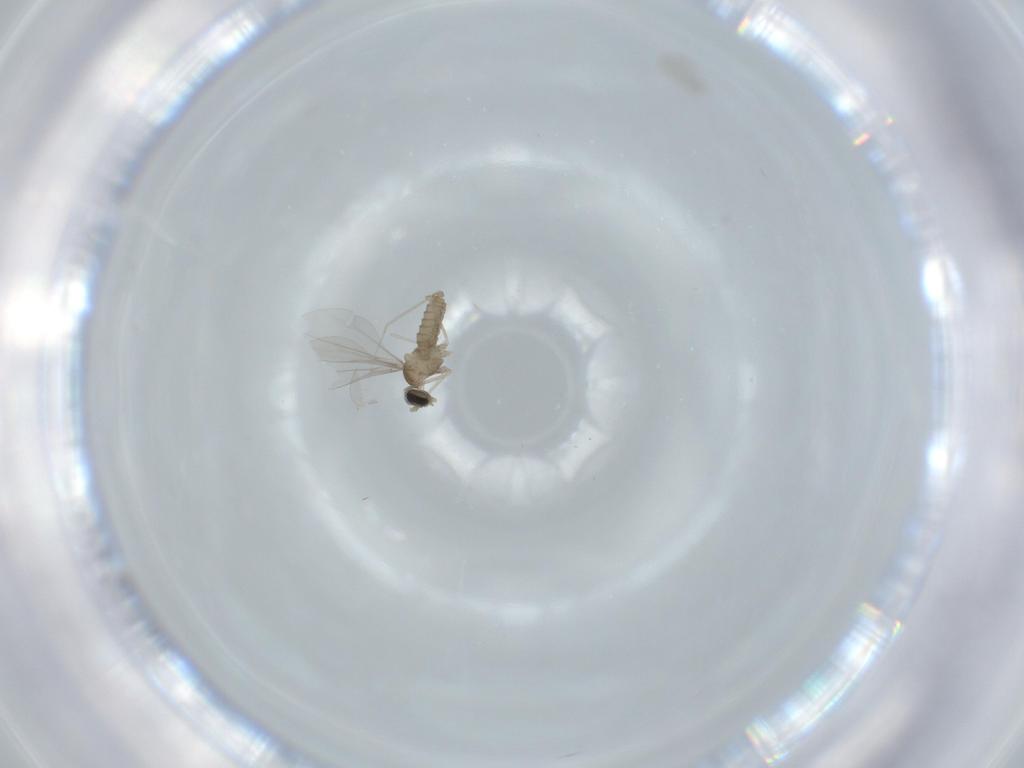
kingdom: Animalia
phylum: Arthropoda
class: Insecta
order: Diptera
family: Cecidomyiidae
